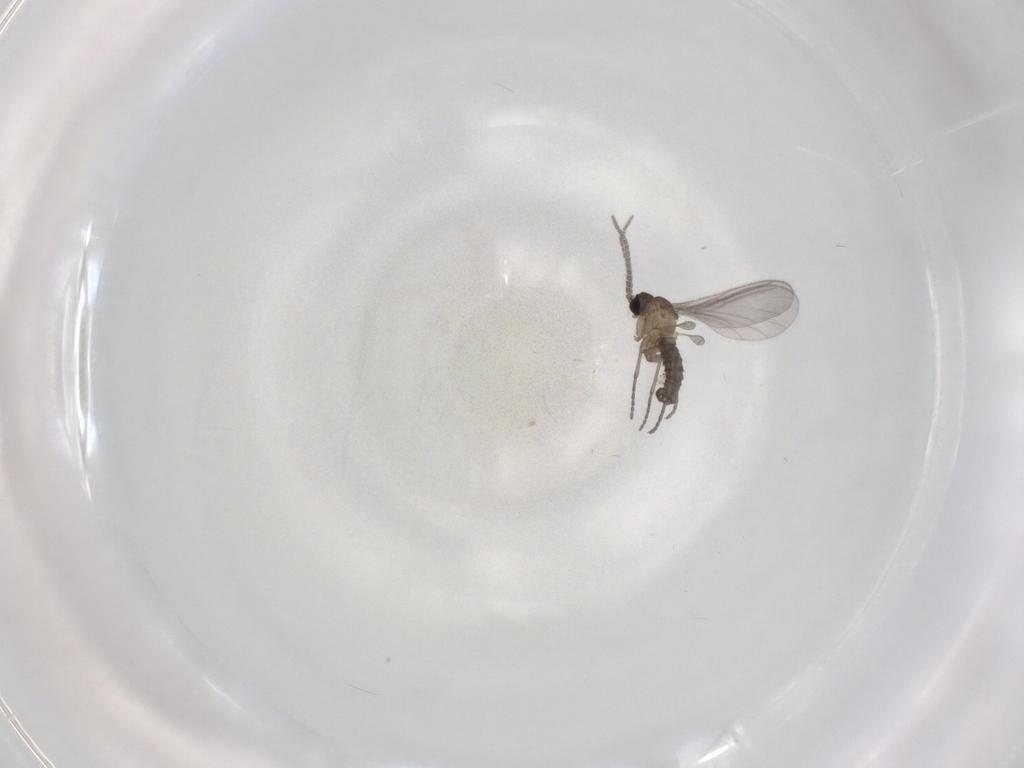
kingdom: Animalia
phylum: Arthropoda
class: Insecta
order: Diptera
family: Sciaridae
